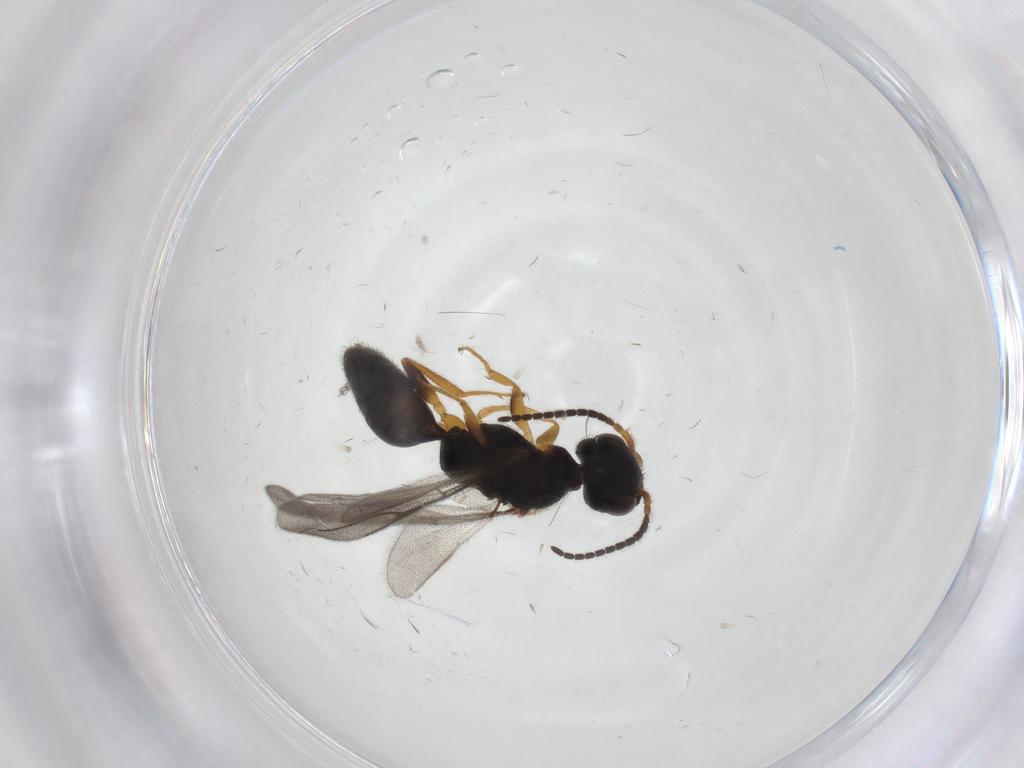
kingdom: Animalia
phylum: Arthropoda
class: Insecta
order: Hymenoptera
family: Bethylidae
